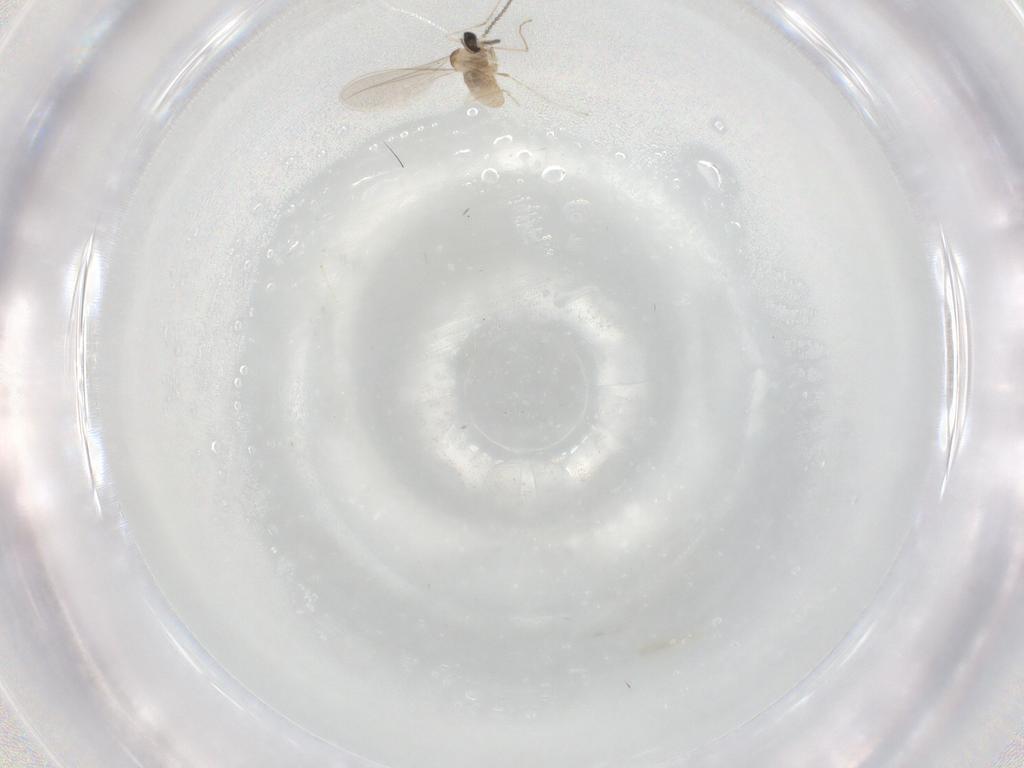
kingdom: Animalia
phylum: Arthropoda
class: Insecta
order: Diptera
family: Cecidomyiidae
